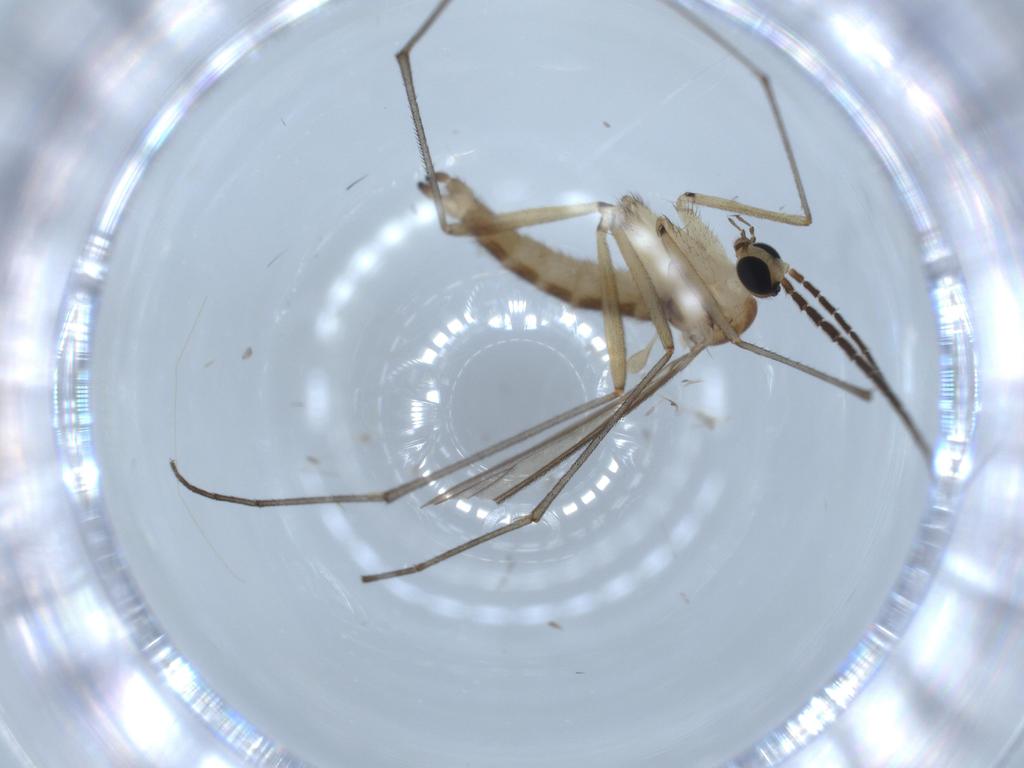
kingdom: Animalia
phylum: Arthropoda
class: Insecta
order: Diptera
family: Sciaridae
